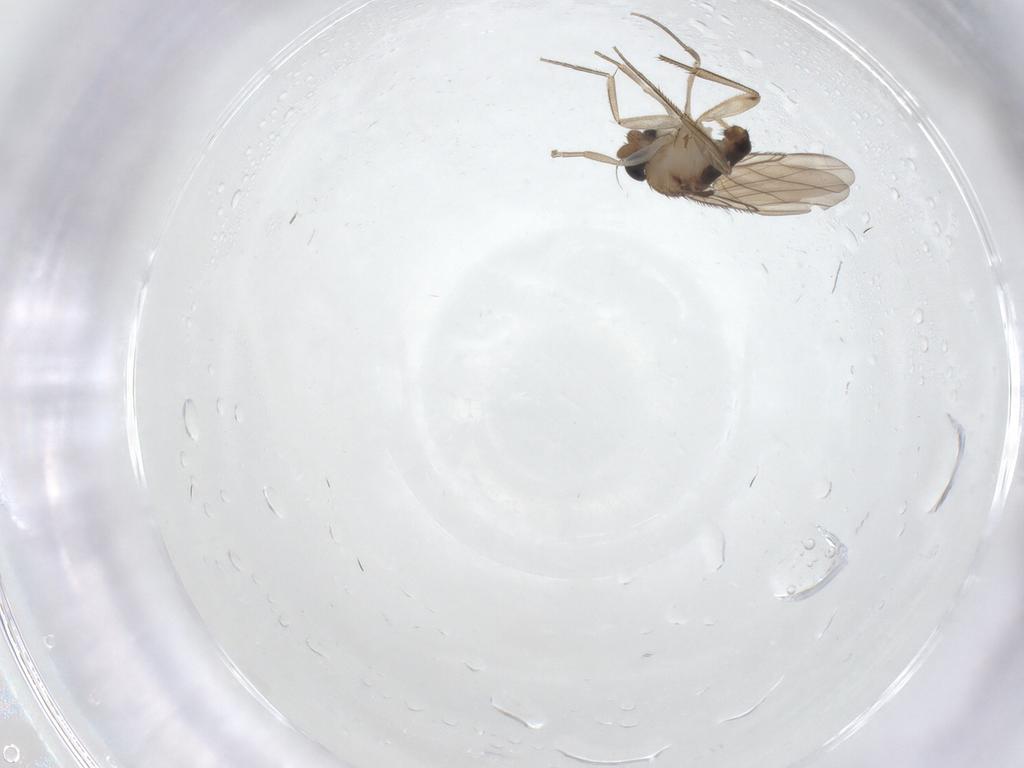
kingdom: Animalia
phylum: Arthropoda
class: Insecta
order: Diptera
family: Phoridae
